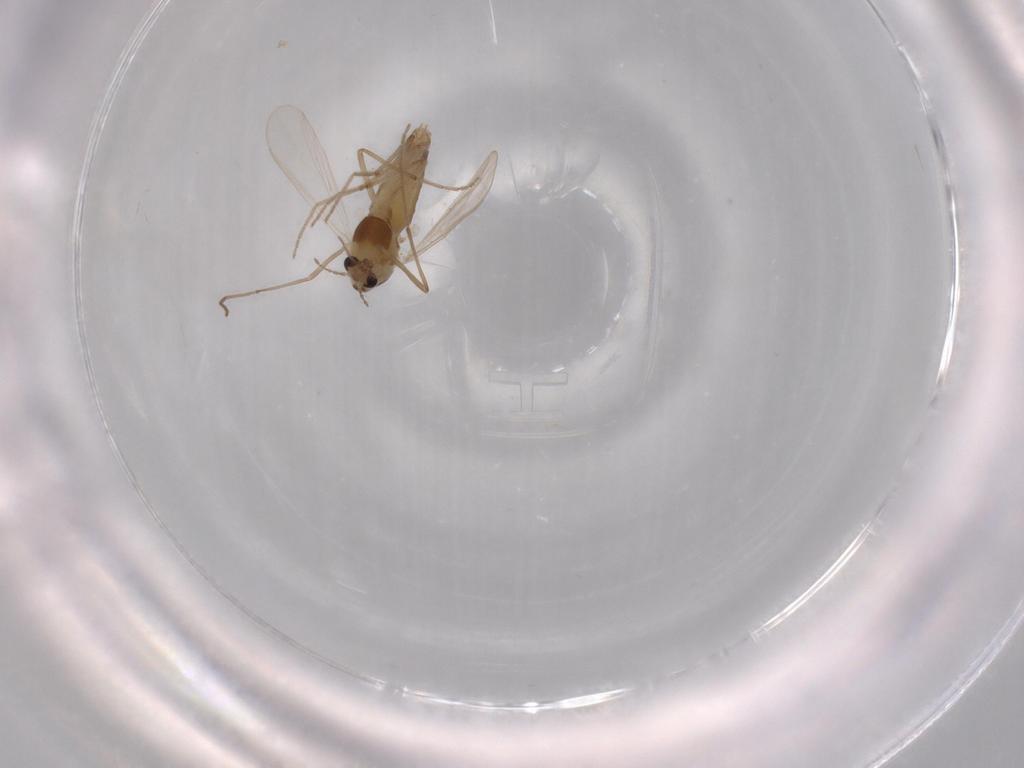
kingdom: Animalia
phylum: Arthropoda
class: Insecta
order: Diptera
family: Chironomidae
